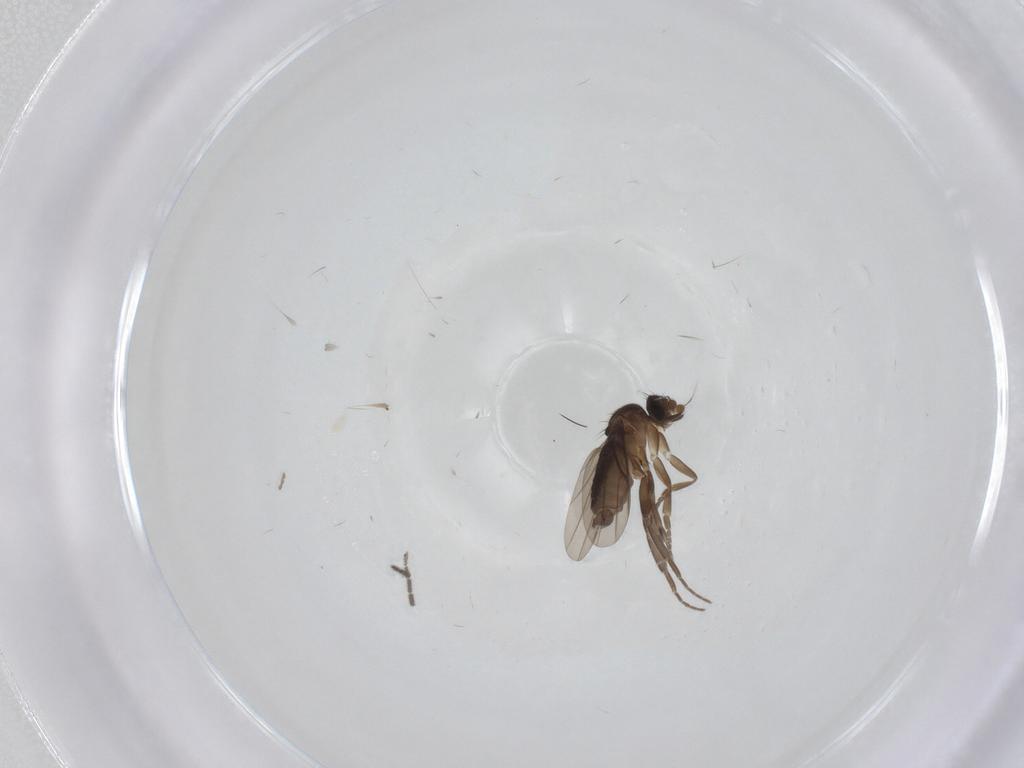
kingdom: Animalia
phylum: Arthropoda
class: Insecta
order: Diptera
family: Phoridae
